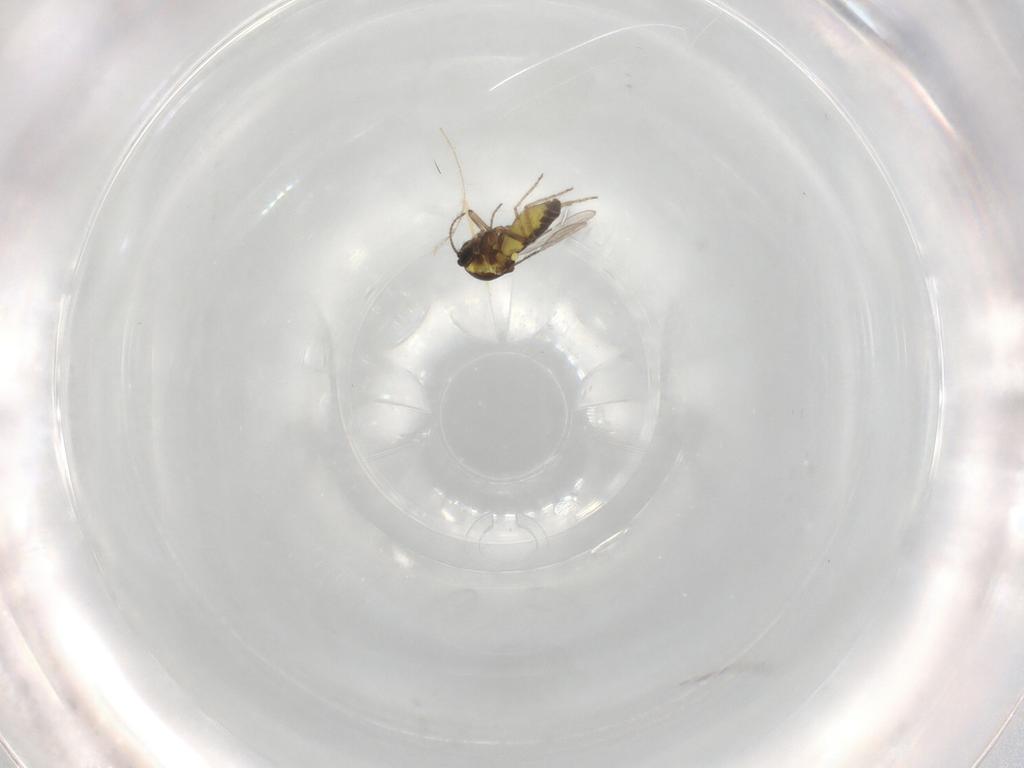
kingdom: Animalia
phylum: Arthropoda
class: Insecta
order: Diptera
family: Ceratopogonidae
